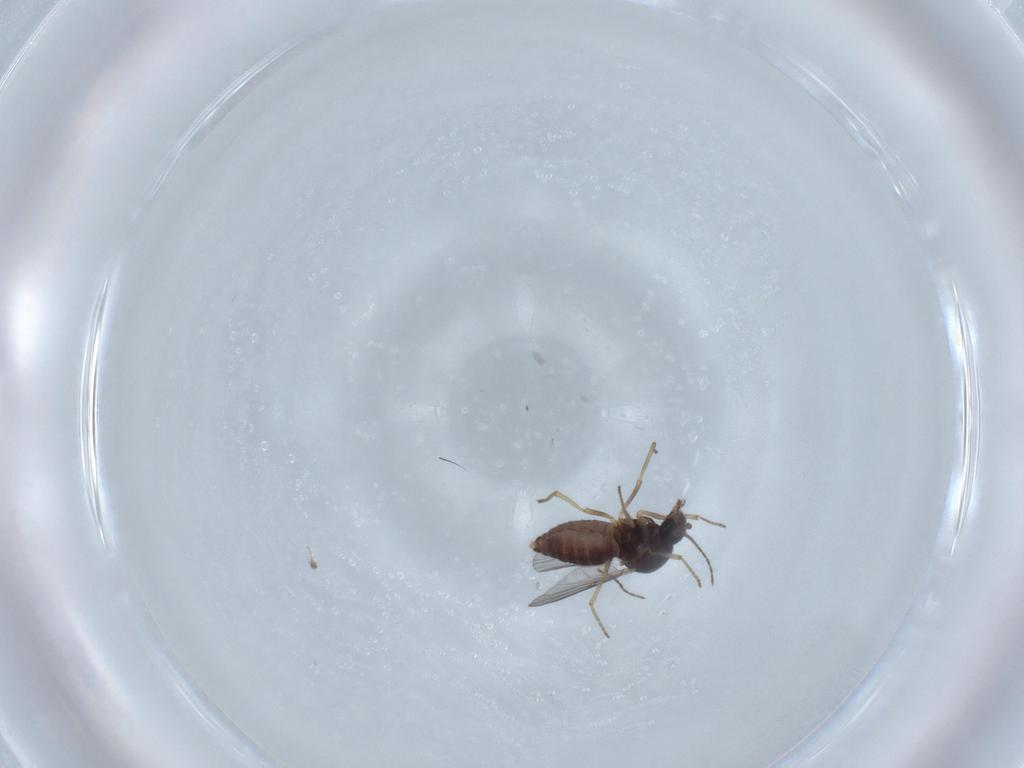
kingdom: Animalia
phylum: Arthropoda
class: Insecta
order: Diptera
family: Ceratopogonidae
